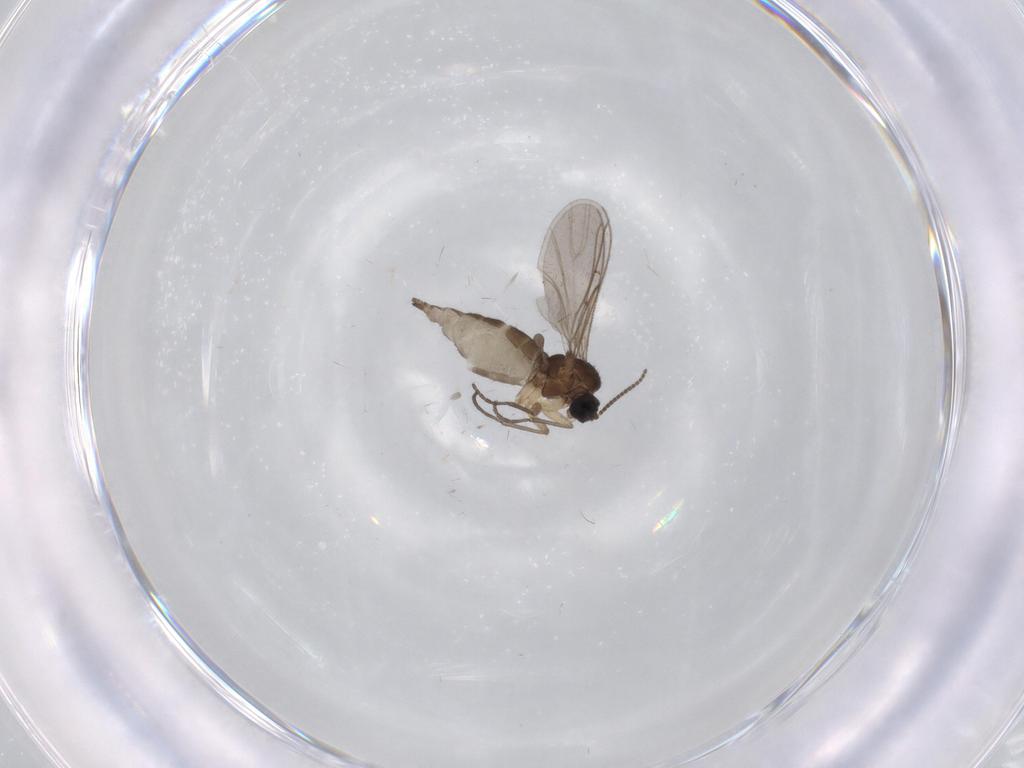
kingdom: Animalia
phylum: Arthropoda
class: Insecta
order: Diptera
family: Sciaridae
